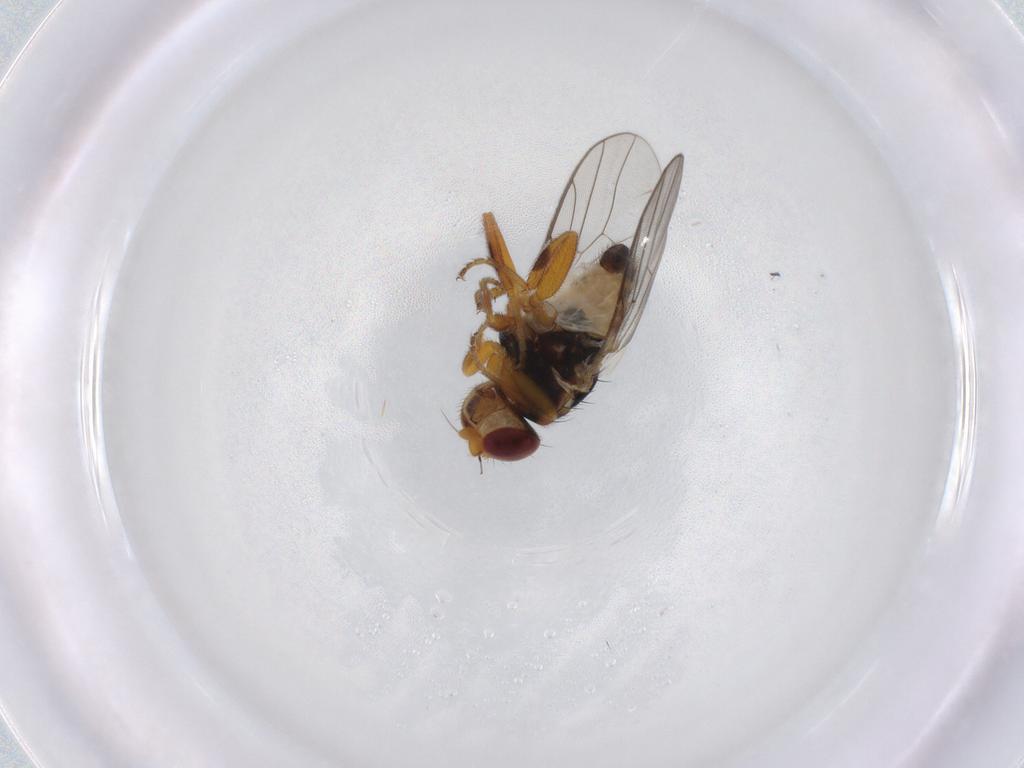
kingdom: Animalia
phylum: Arthropoda
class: Insecta
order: Diptera
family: Chloropidae
